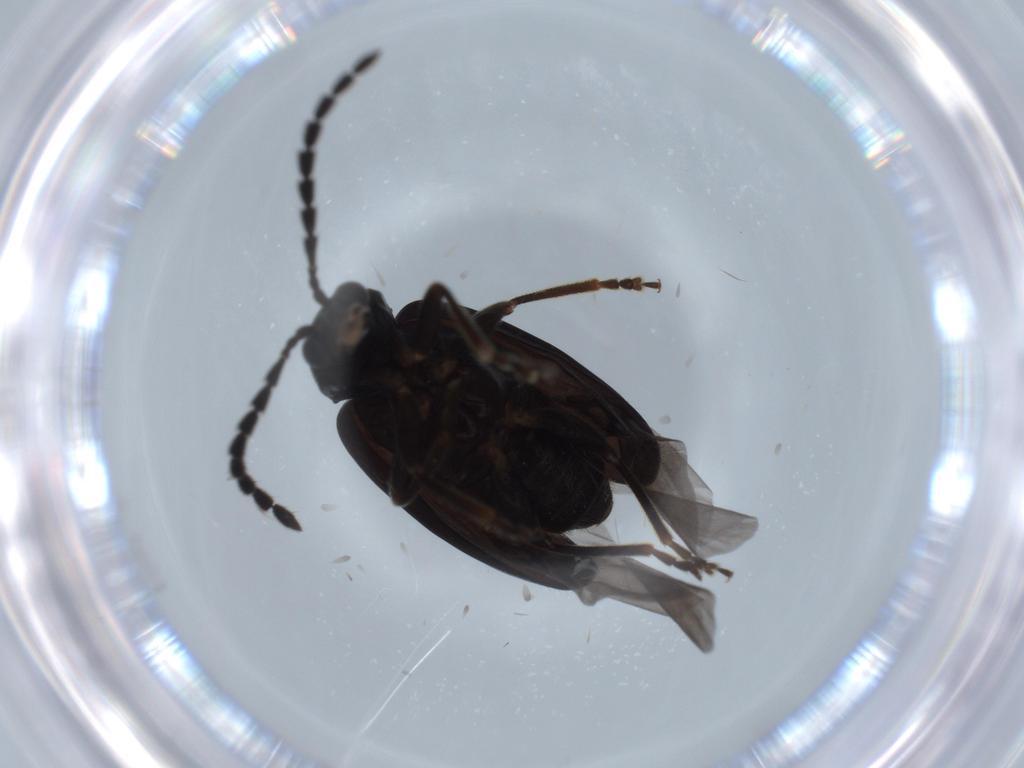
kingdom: Animalia
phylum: Arthropoda
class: Insecta
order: Coleoptera
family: Chrysomelidae
